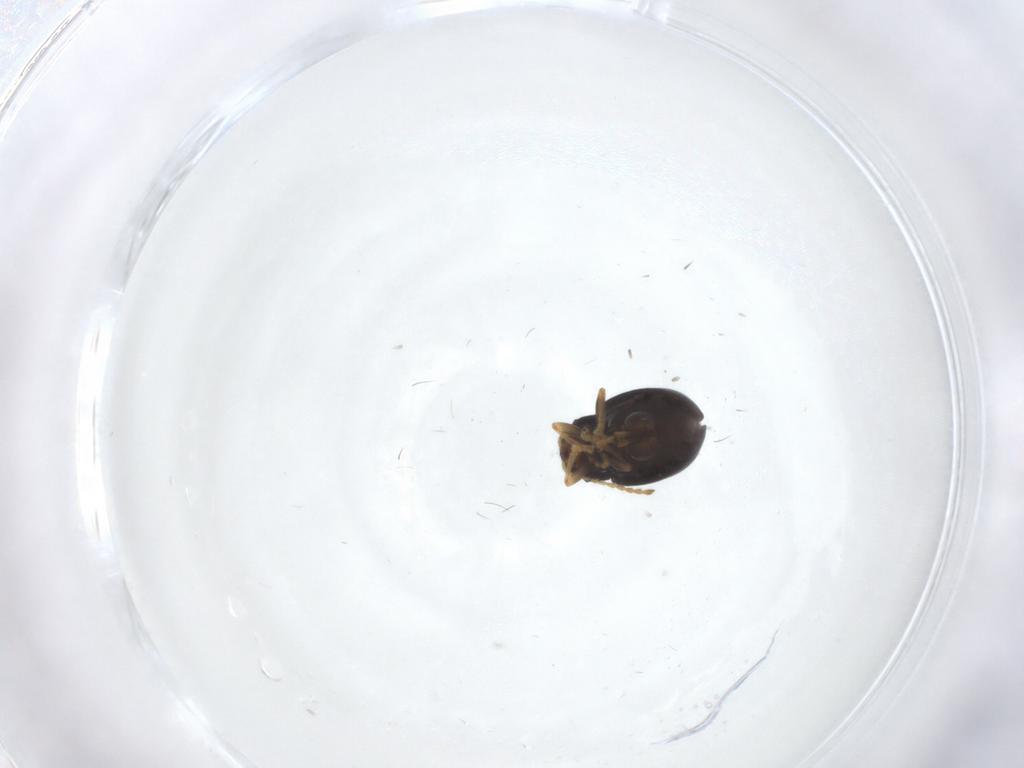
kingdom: Animalia
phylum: Arthropoda
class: Insecta
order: Coleoptera
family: Chrysomelidae
